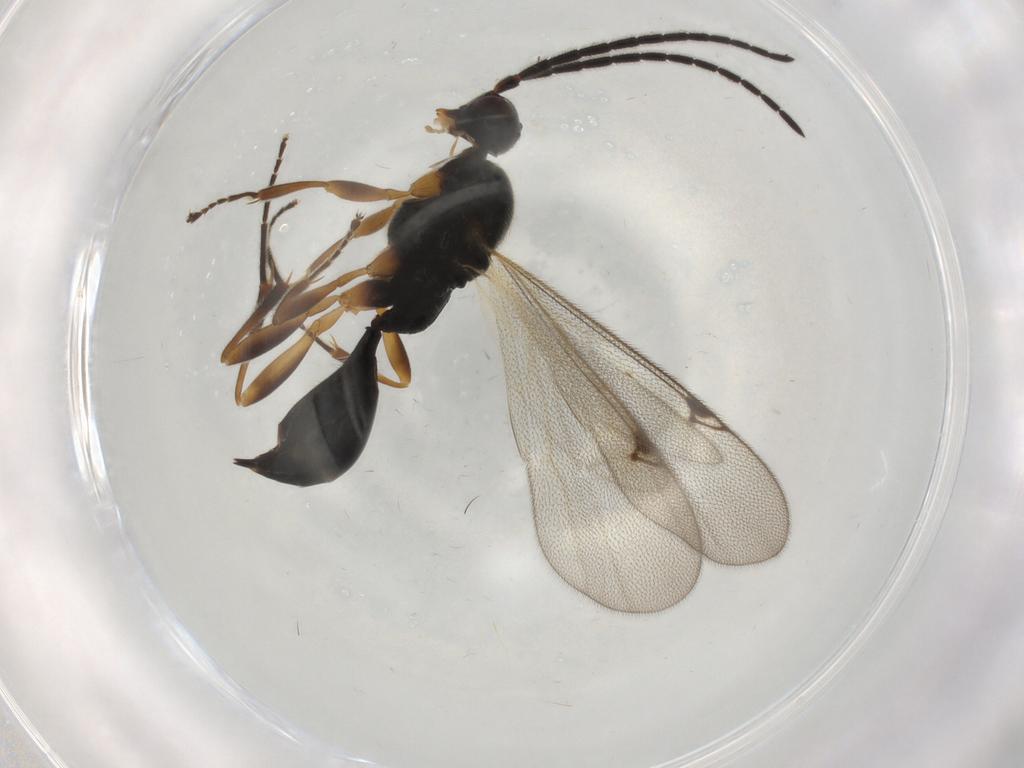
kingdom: Animalia
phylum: Arthropoda
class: Insecta
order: Hymenoptera
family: Proctotrupidae
